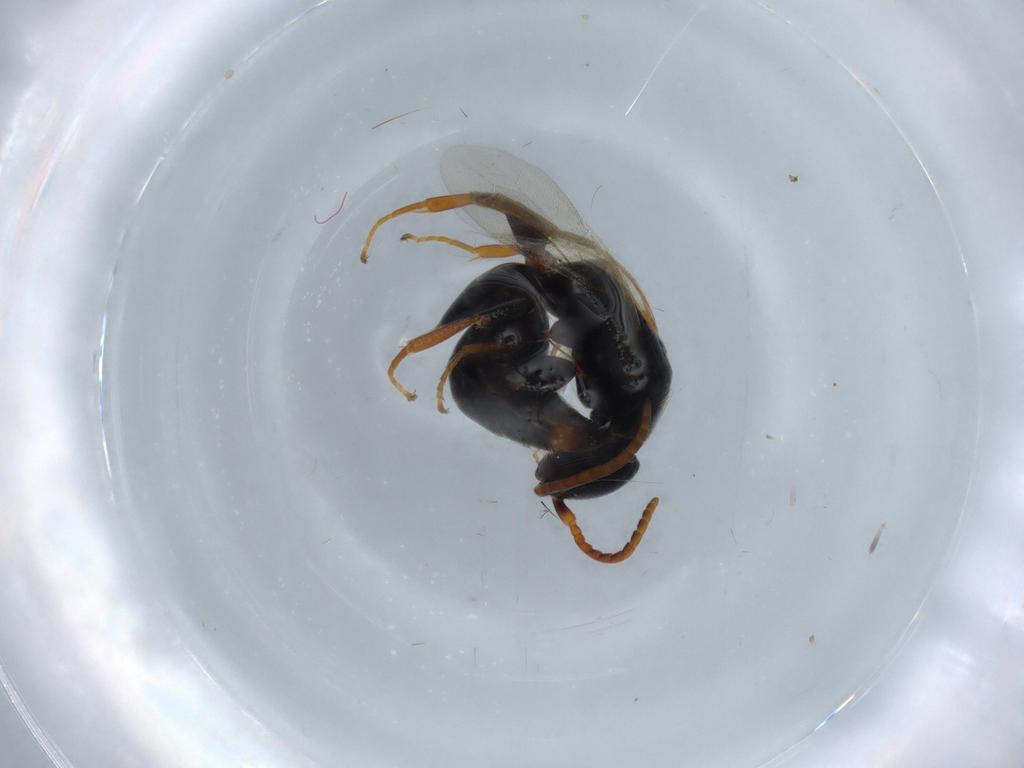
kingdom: Animalia
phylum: Arthropoda
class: Insecta
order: Hymenoptera
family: Bethylidae
